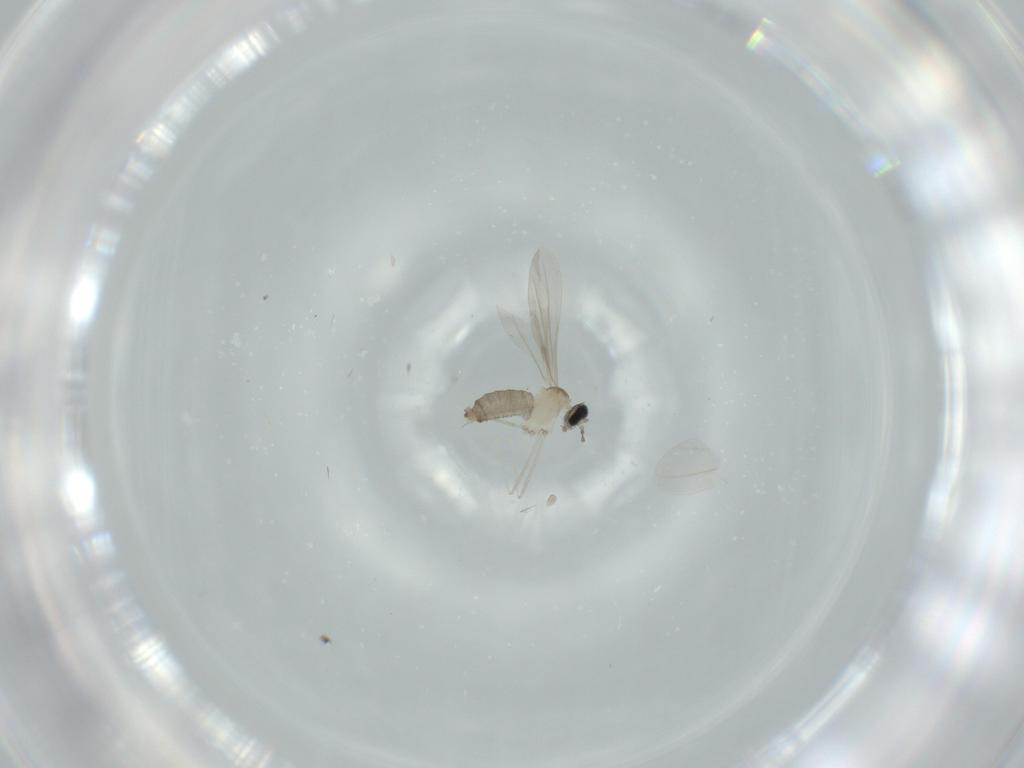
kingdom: Animalia
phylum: Arthropoda
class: Insecta
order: Diptera
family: Cecidomyiidae
